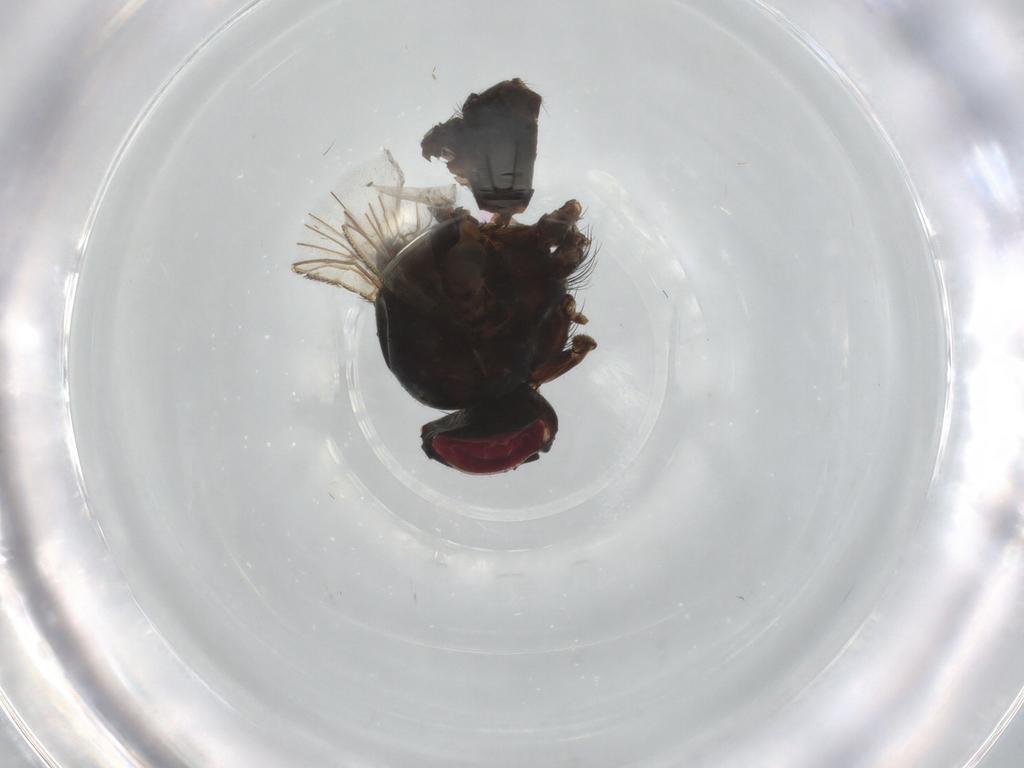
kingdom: Animalia
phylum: Arthropoda
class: Insecta
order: Diptera
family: Muscidae
